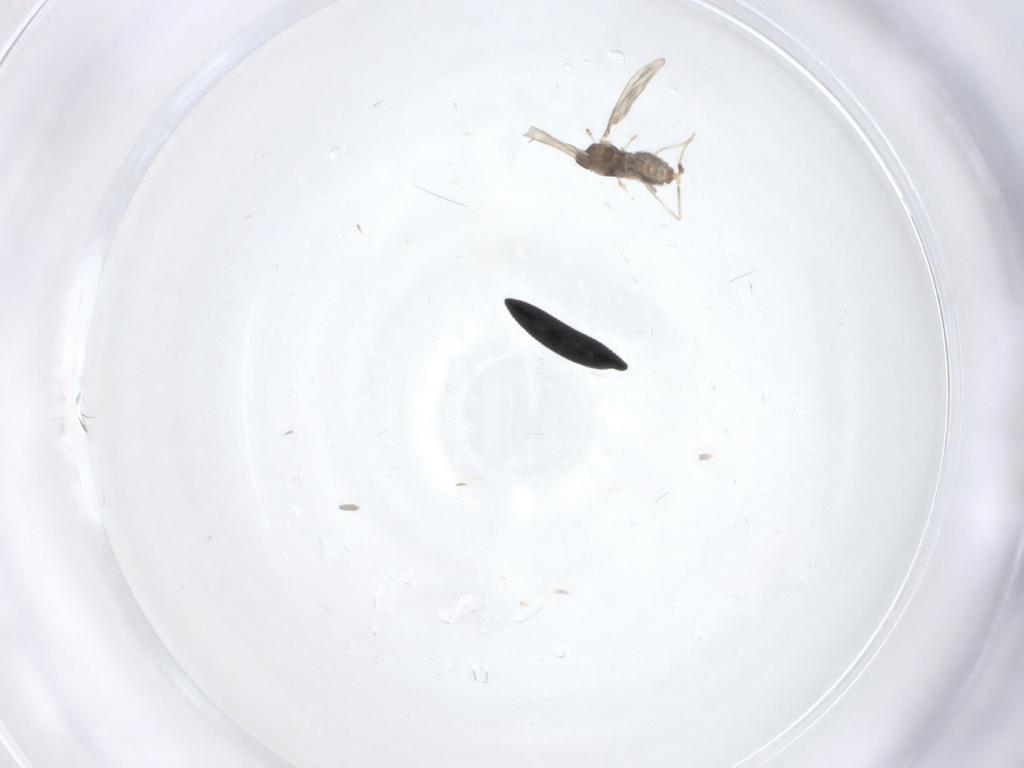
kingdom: Animalia
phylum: Arthropoda
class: Insecta
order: Diptera
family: Cecidomyiidae
